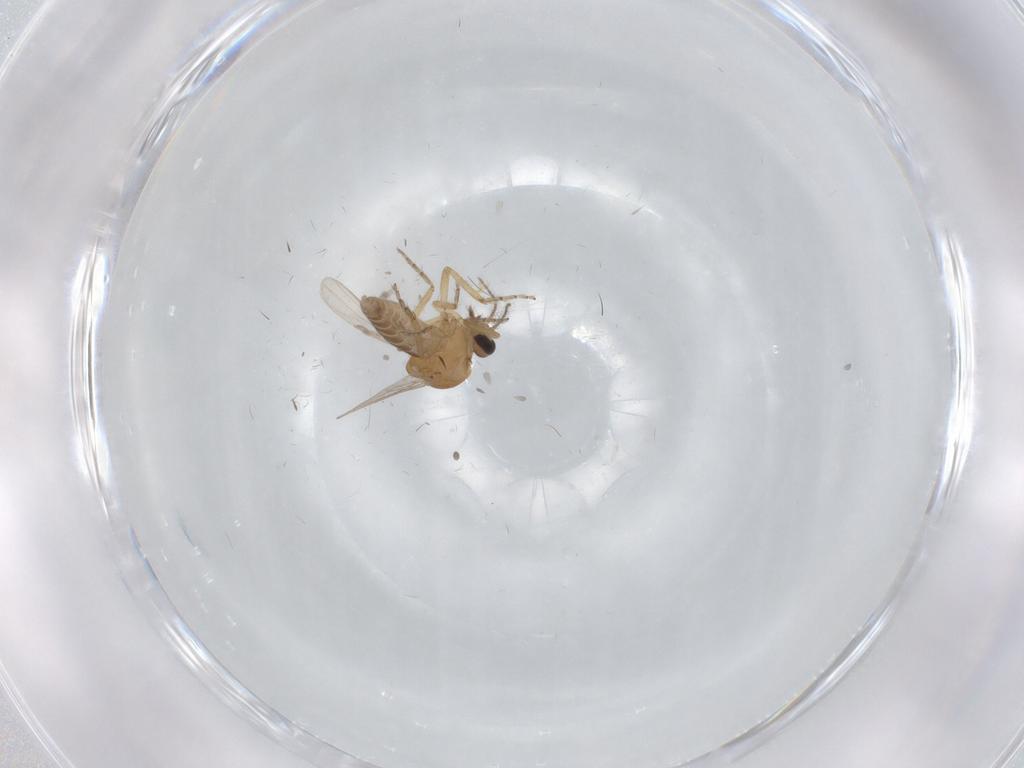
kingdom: Animalia
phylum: Arthropoda
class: Insecta
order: Diptera
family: Ceratopogonidae
